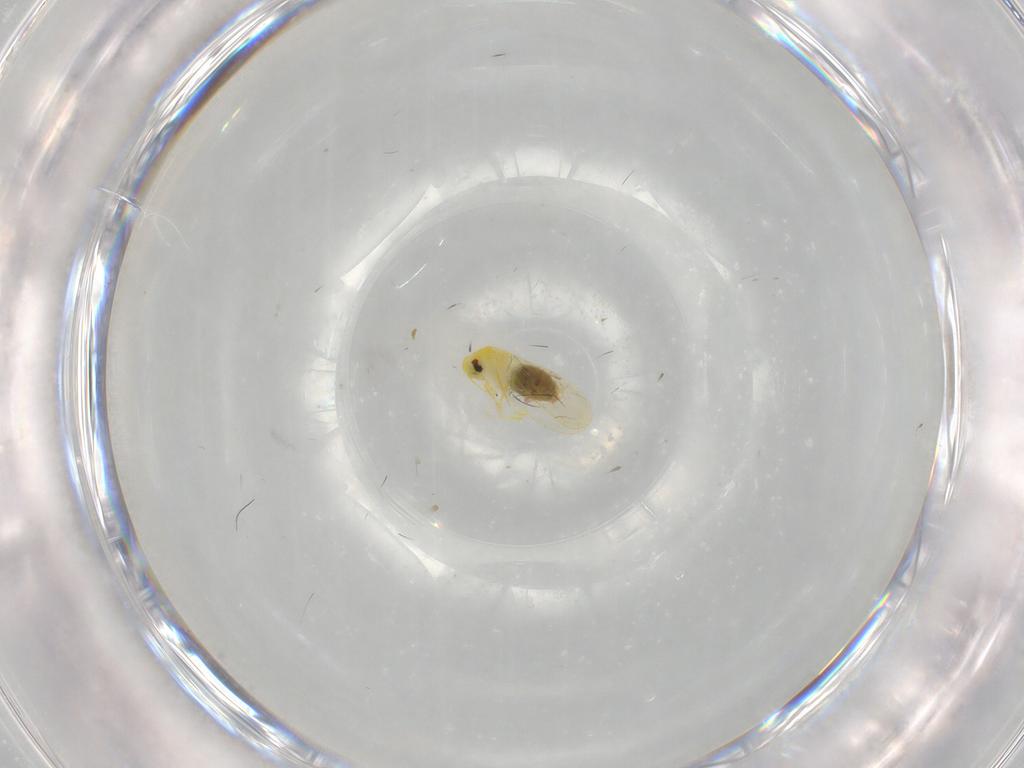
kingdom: Animalia
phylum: Arthropoda
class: Insecta
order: Hemiptera
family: Aleyrodidae
